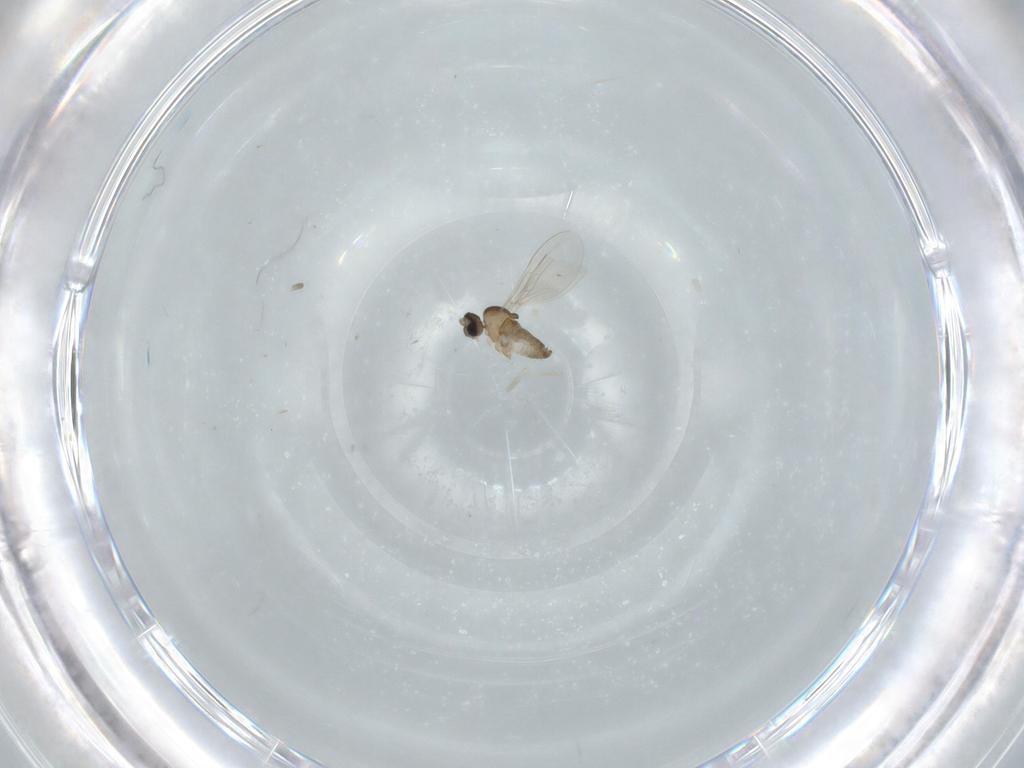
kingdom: Animalia
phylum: Arthropoda
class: Insecta
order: Diptera
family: Cecidomyiidae
